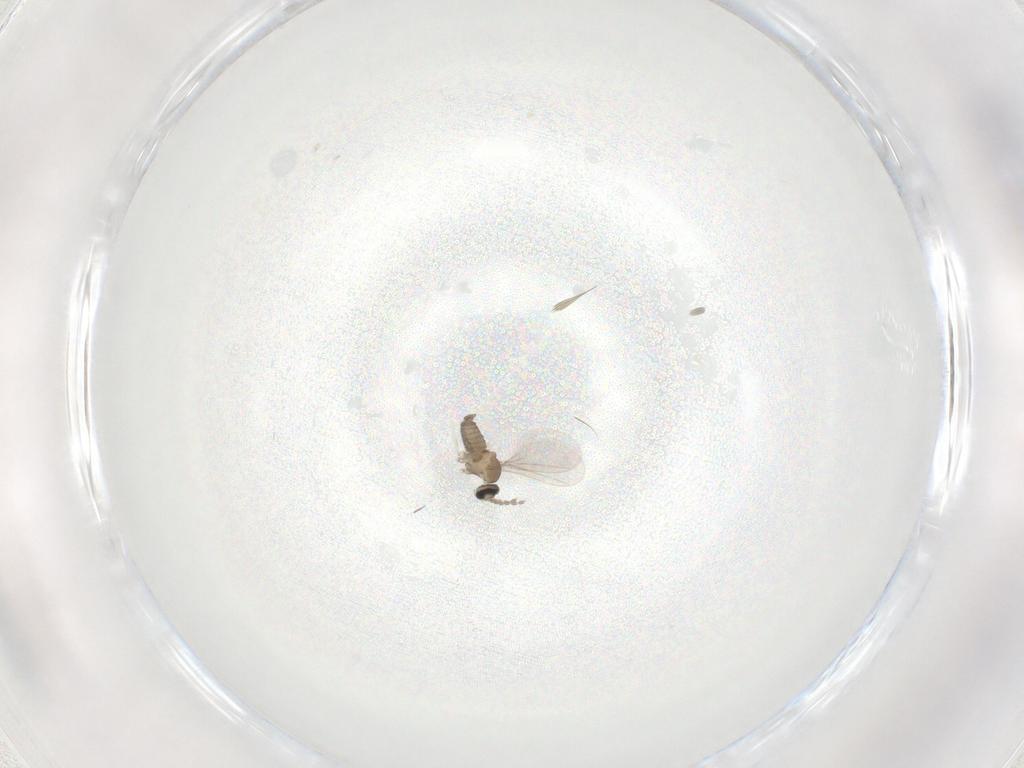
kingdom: Animalia
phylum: Arthropoda
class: Insecta
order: Diptera
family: Cecidomyiidae
